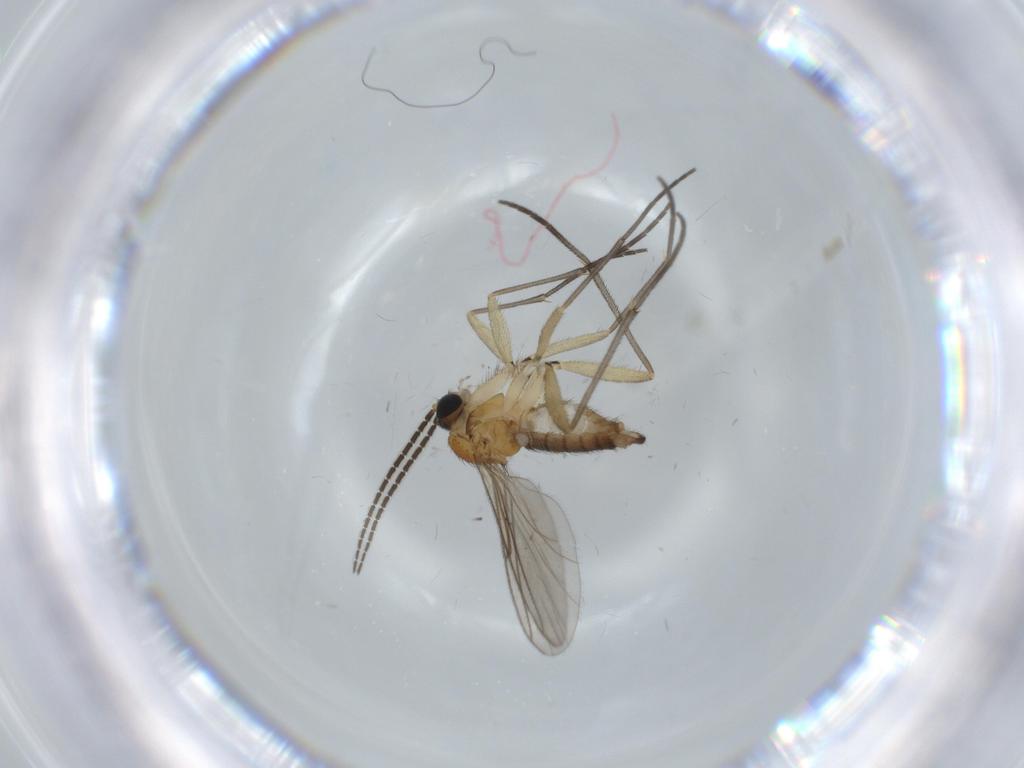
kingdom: Animalia
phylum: Arthropoda
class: Insecta
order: Diptera
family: Sciaridae
